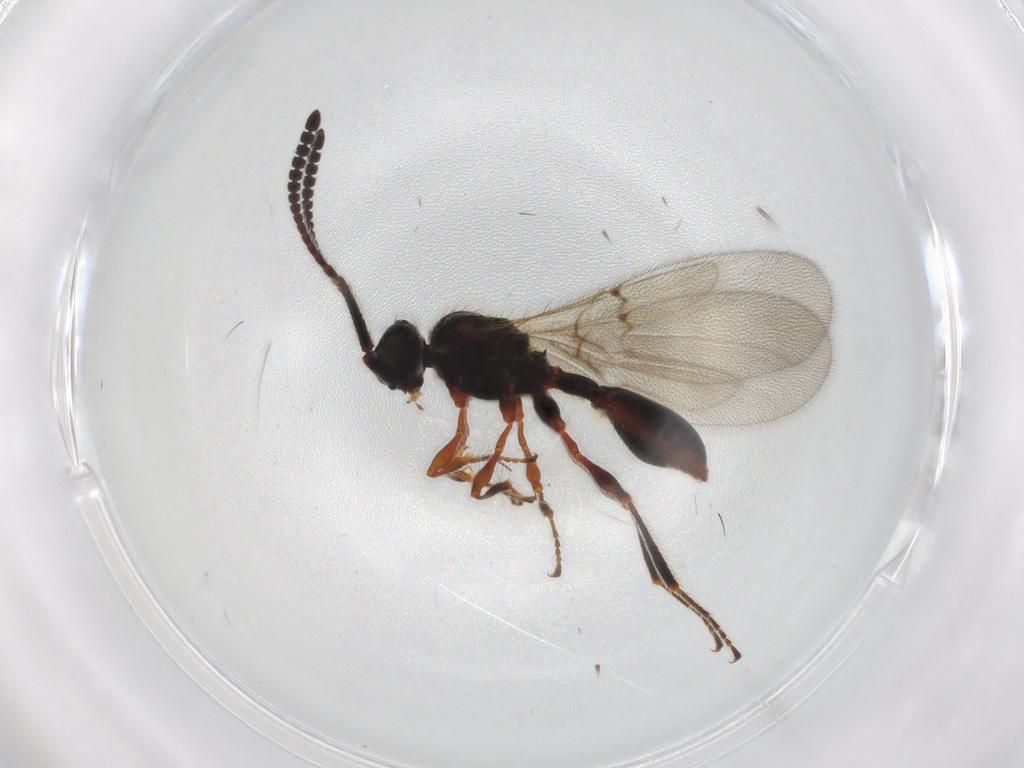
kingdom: Animalia
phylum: Arthropoda
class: Insecta
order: Hymenoptera
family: Diapriidae
